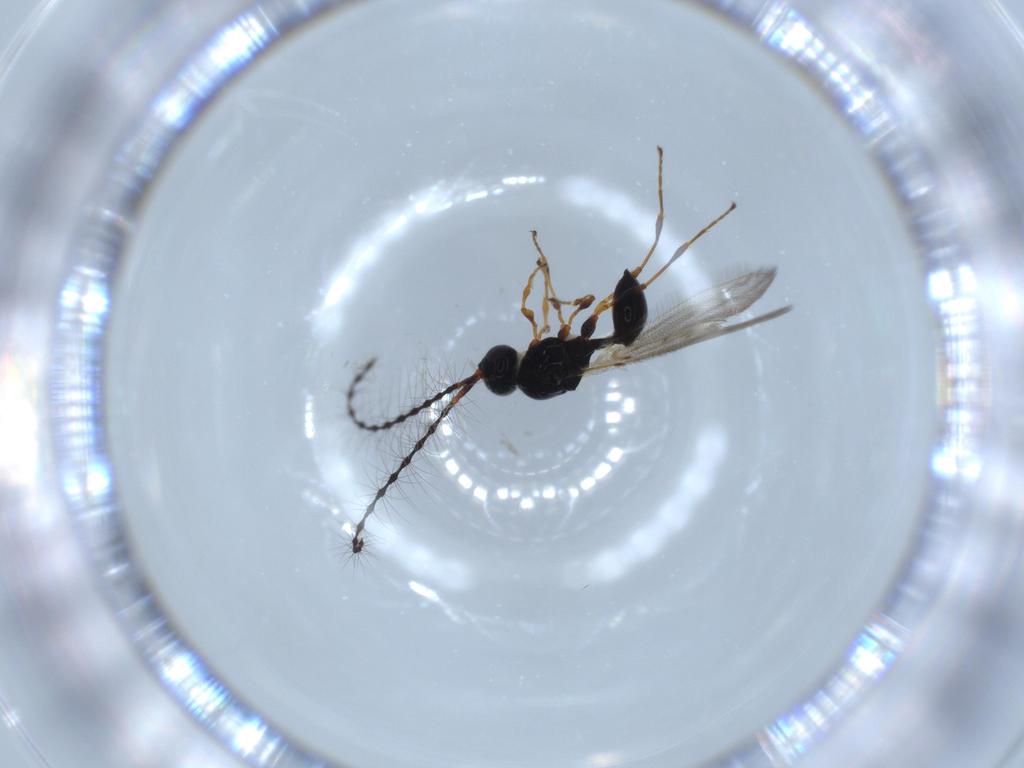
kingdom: Animalia
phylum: Arthropoda
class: Insecta
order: Hymenoptera
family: Diapriidae
